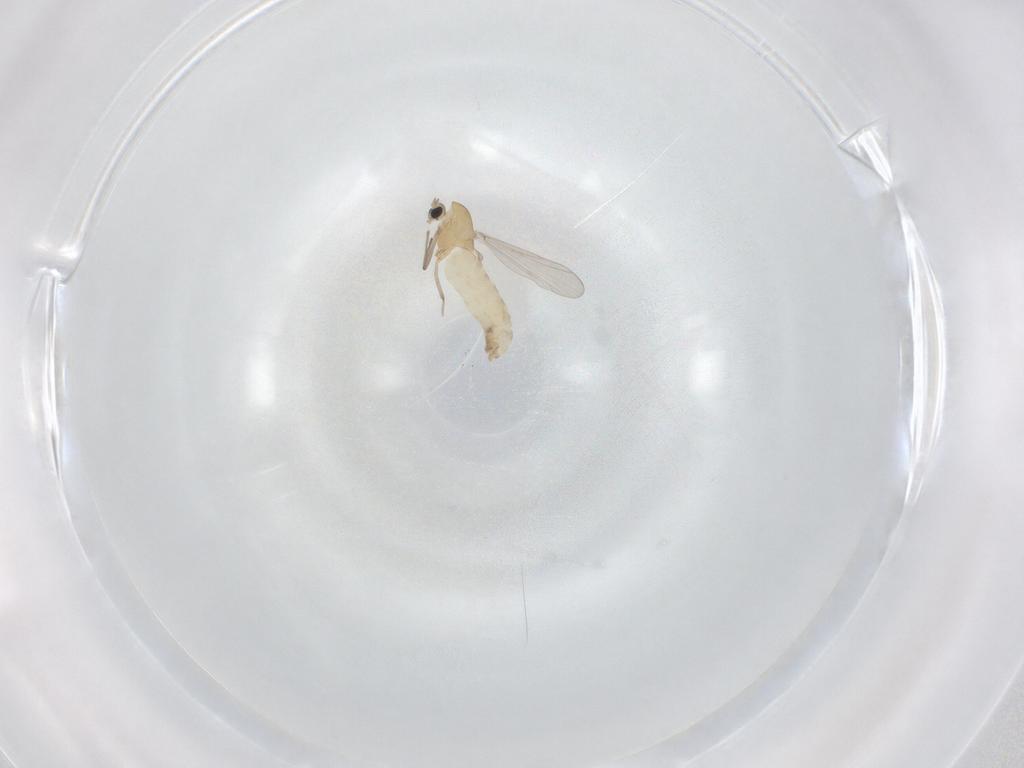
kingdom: Animalia
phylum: Arthropoda
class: Insecta
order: Diptera
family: Chironomidae
